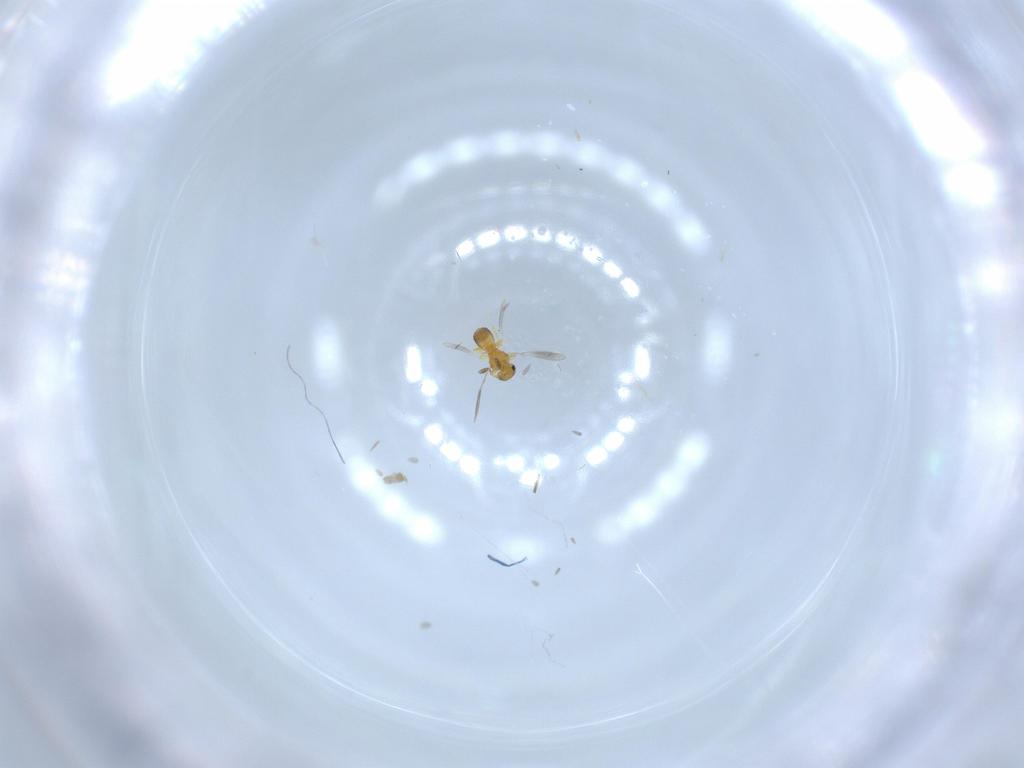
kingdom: Animalia
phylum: Arthropoda
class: Insecta
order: Hymenoptera
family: Platygastridae
